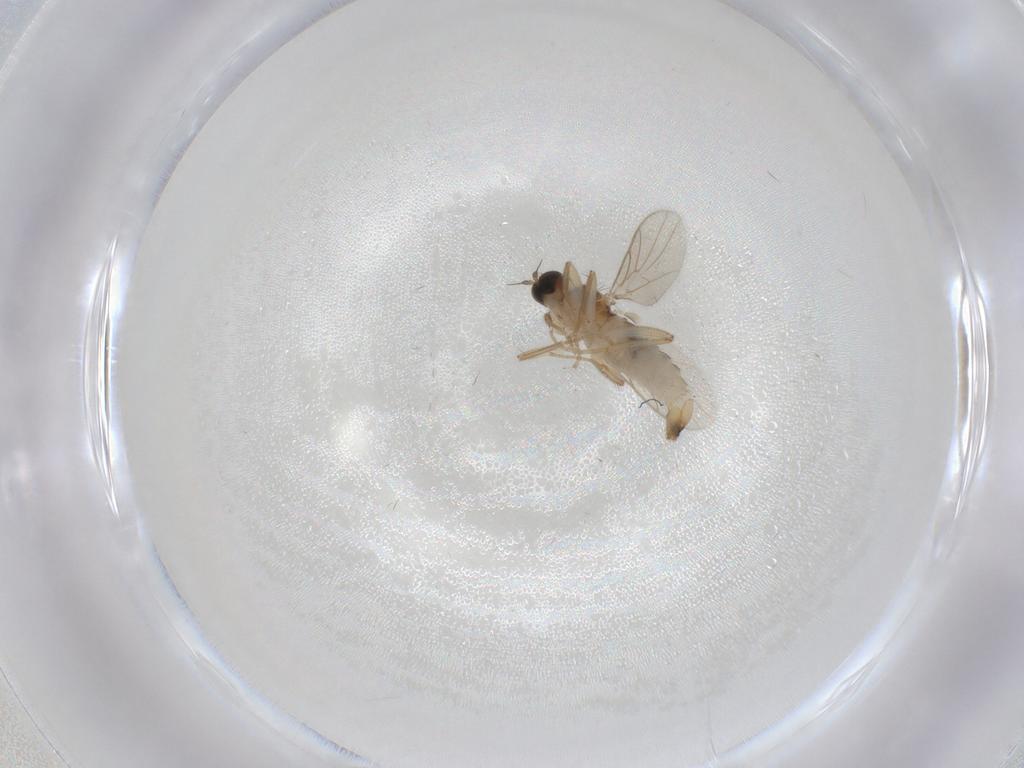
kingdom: Animalia
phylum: Arthropoda
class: Insecta
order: Diptera
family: Hybotidae
